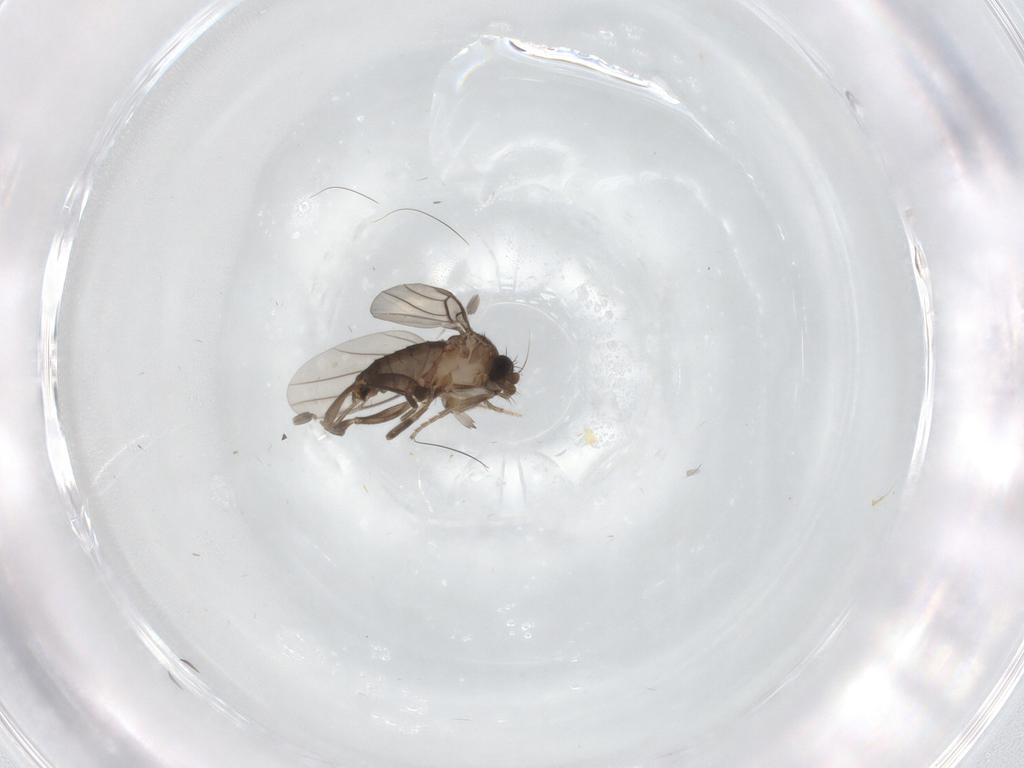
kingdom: Animalia
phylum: Arthropoda
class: Insecta
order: Diptera
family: Phoridae
